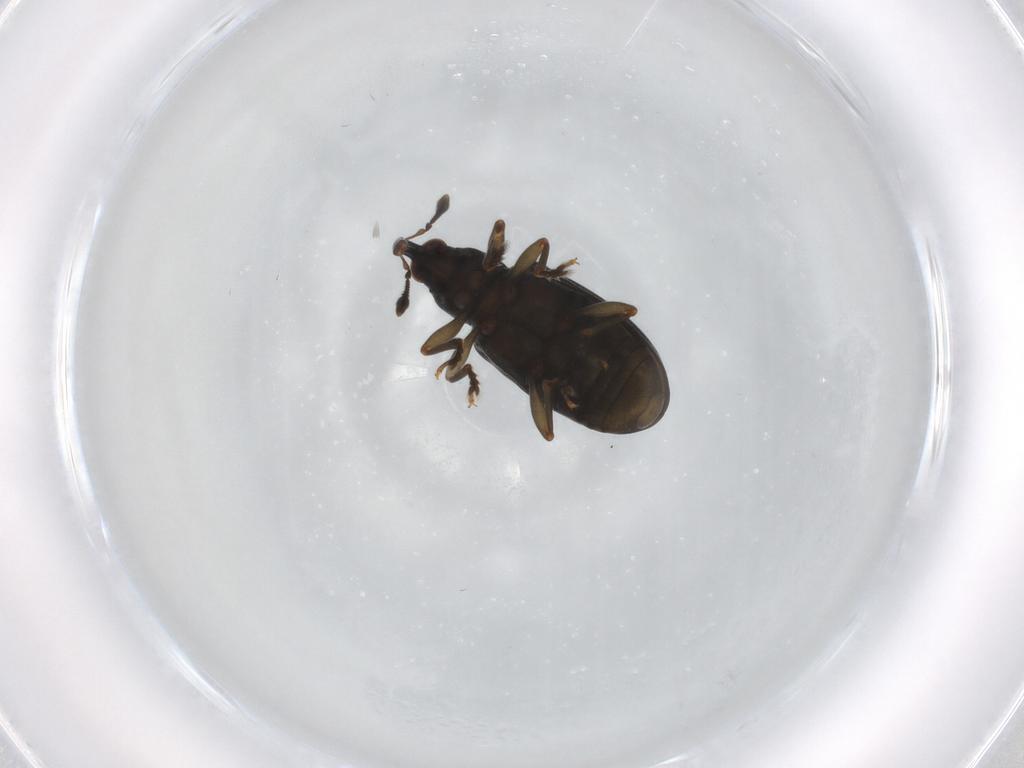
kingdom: Animalia
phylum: Arthropoda
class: Insecta
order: Coleoptera
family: Curculionidae
